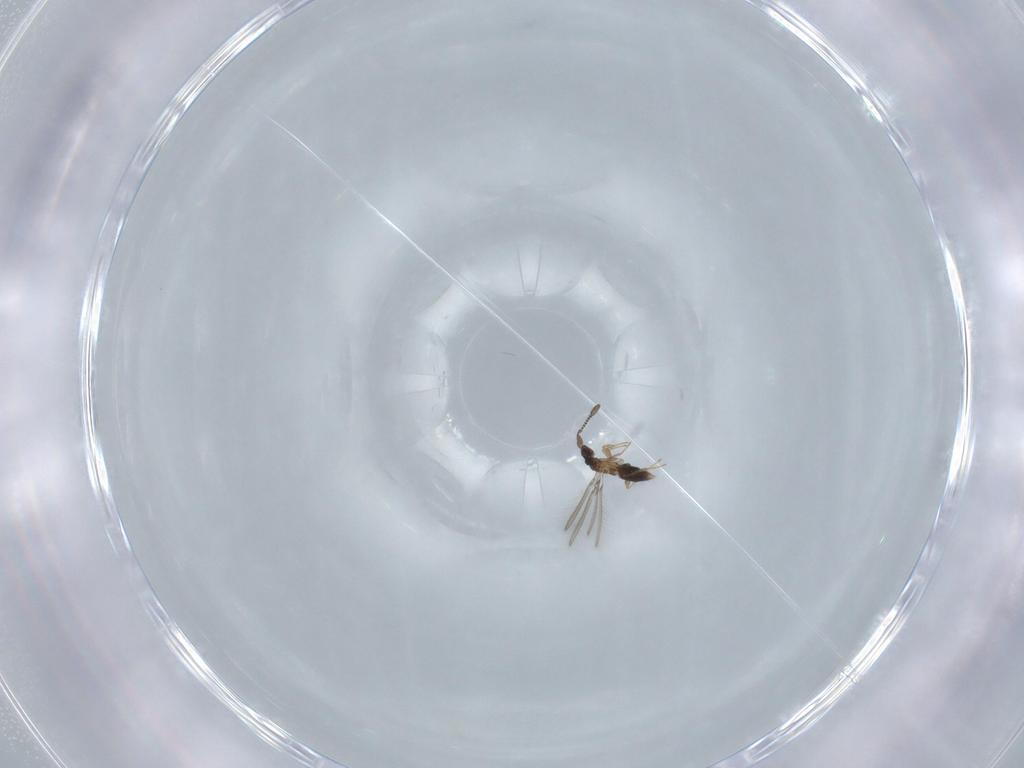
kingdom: Animalia
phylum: Arthropoda
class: Insecta
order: Hymenoptera
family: Mymaridae
